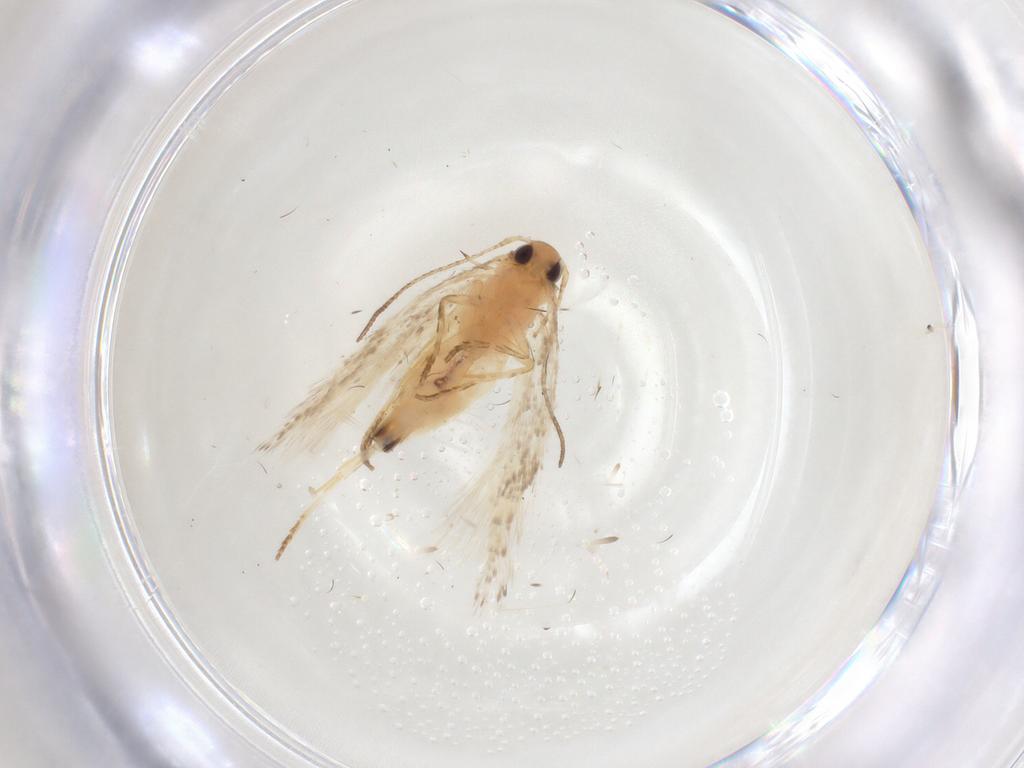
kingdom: Animalia
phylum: Arthropoda
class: Insecta
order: Lepidoptera
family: Gelechiidae
